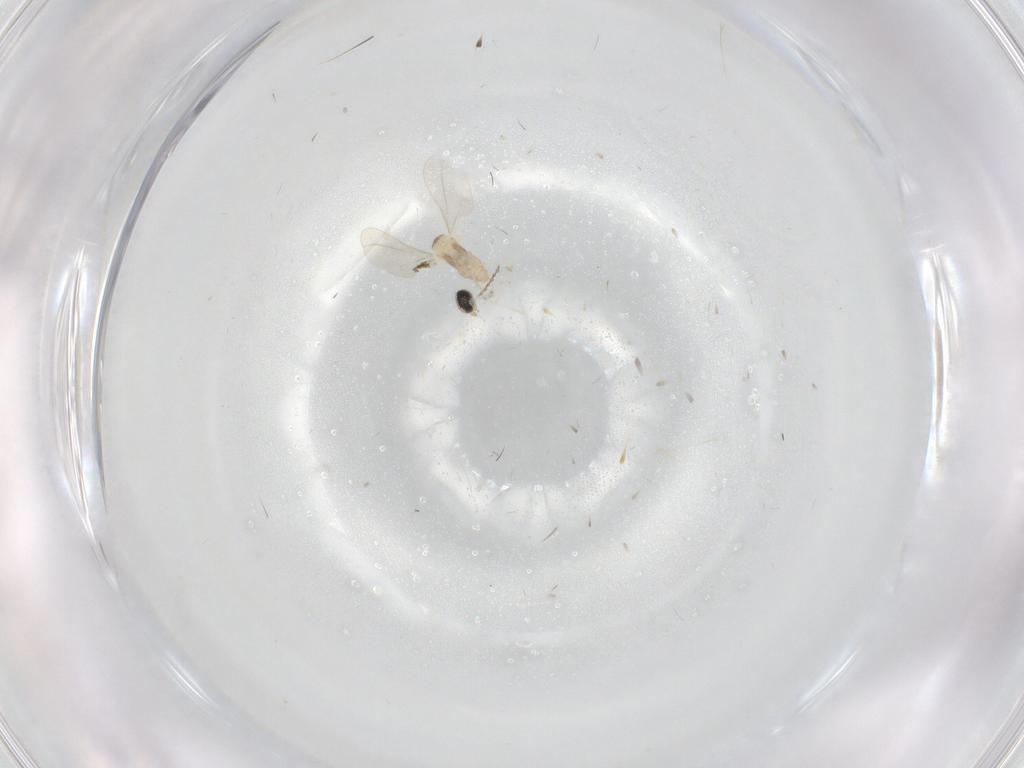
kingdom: Animalia
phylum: Arthropoda
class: Insecta
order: Diptera
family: Cecidomyiidae
